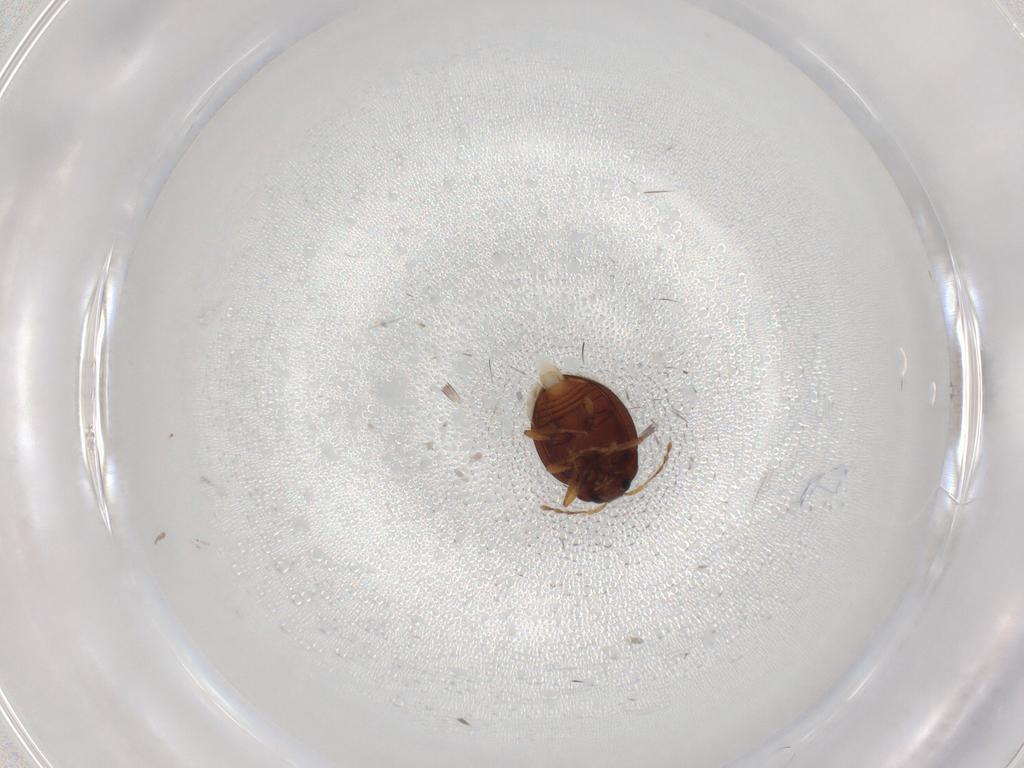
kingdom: Animalia
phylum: Arthropoda
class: Insecta
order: Coleoptera
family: Anamorphidae
